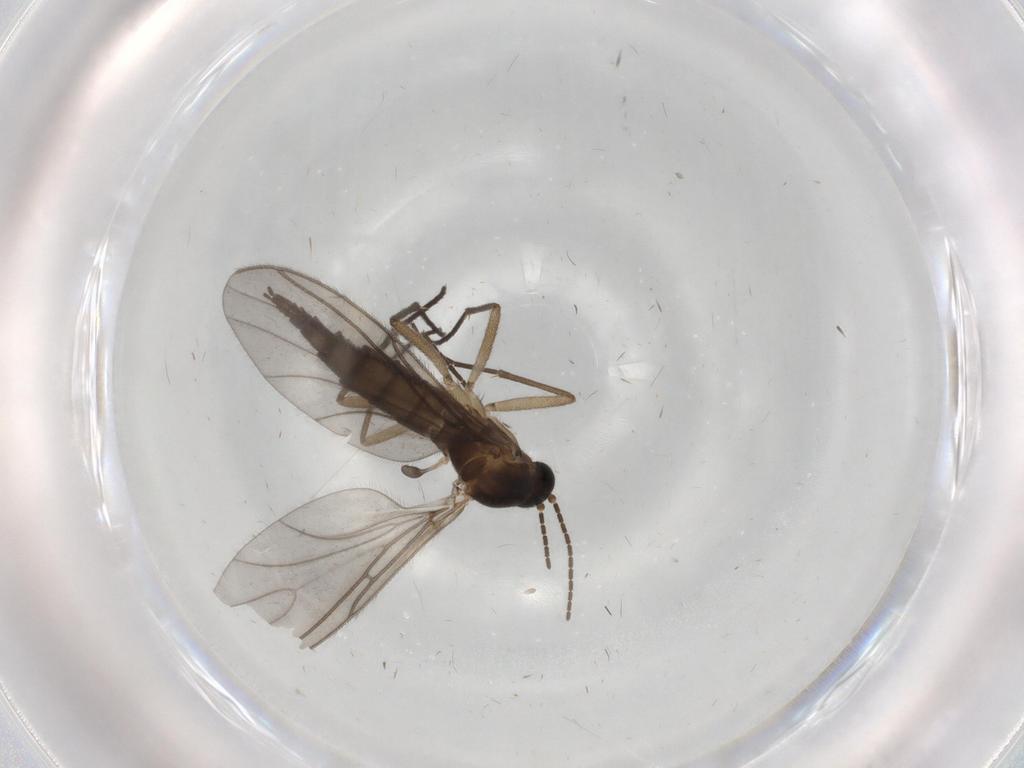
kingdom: Animalia
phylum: Arthropoda
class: Insecta
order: Diptera
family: Sciaridae
